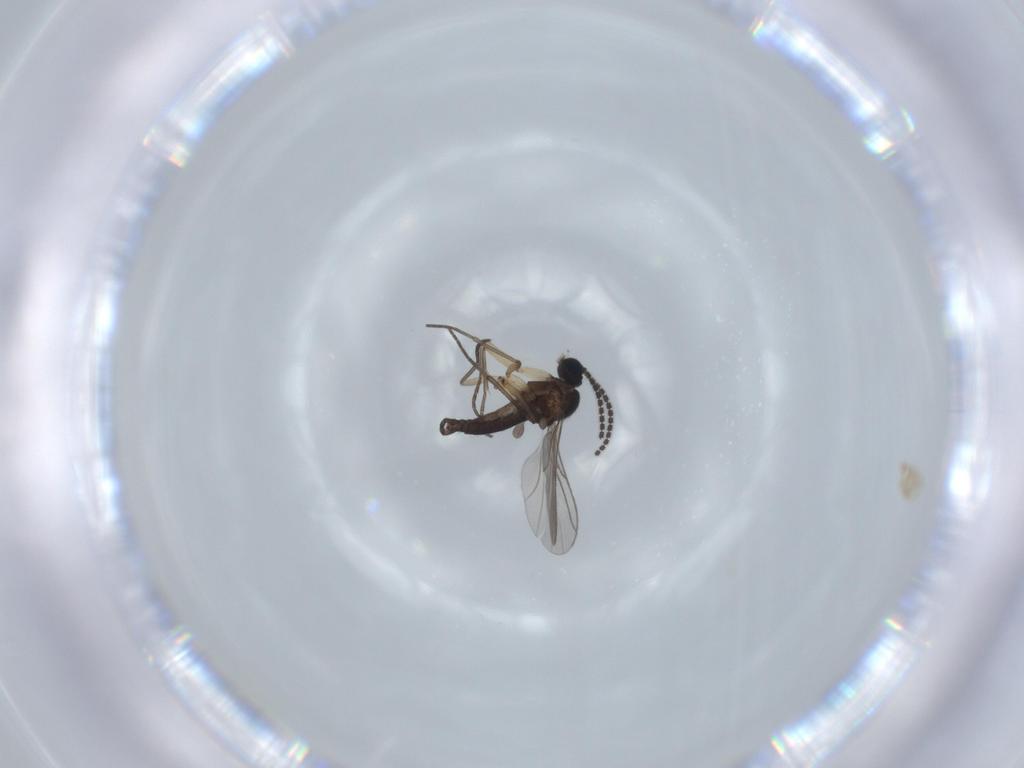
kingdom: Animalia
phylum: Arthropoda
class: Insecta
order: Diptera
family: Sciaridae
